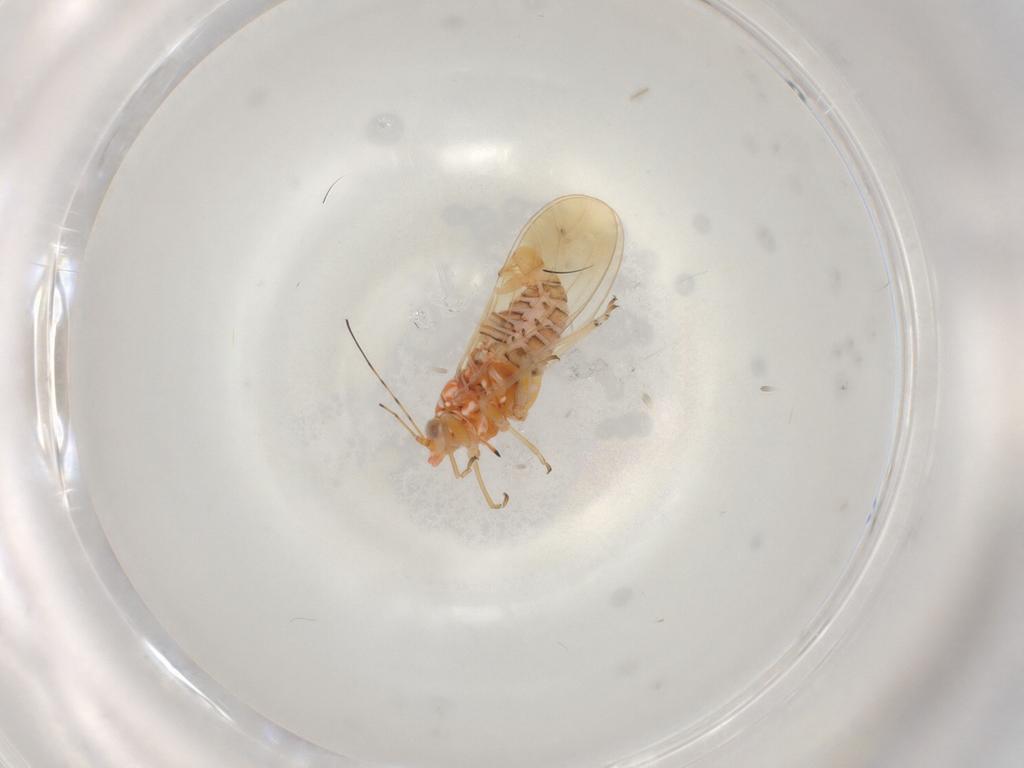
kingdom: Animalia
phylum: Arthropoda
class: Insecta
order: Hemiptera
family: Psyllidae
